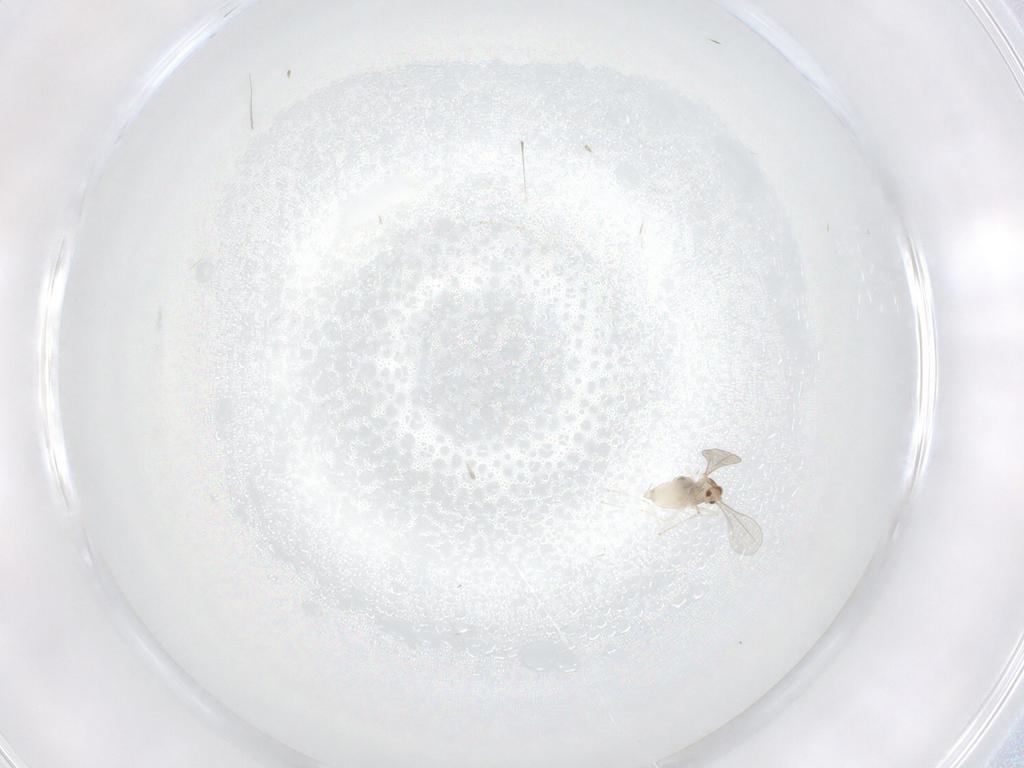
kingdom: Animalia
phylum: Arthropoda
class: Insecta
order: Diptera
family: Cecidomyiidae
